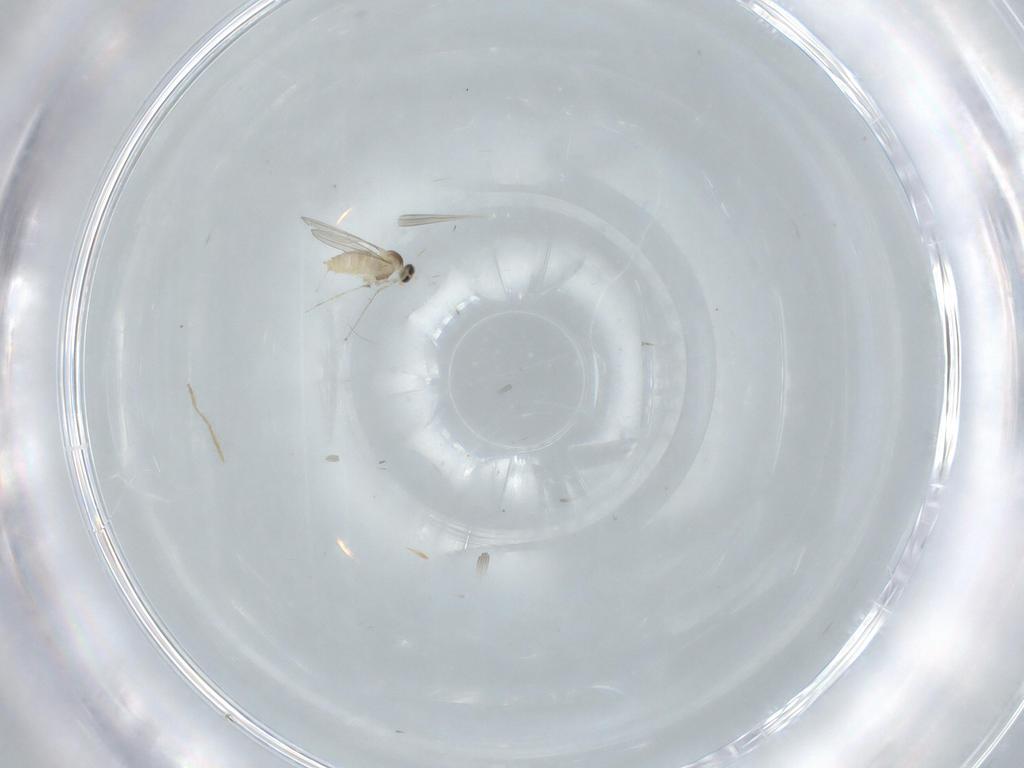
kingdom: Animalia
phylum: Arthropoda
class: Insecta
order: Diptera
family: Cecidomyiidae
